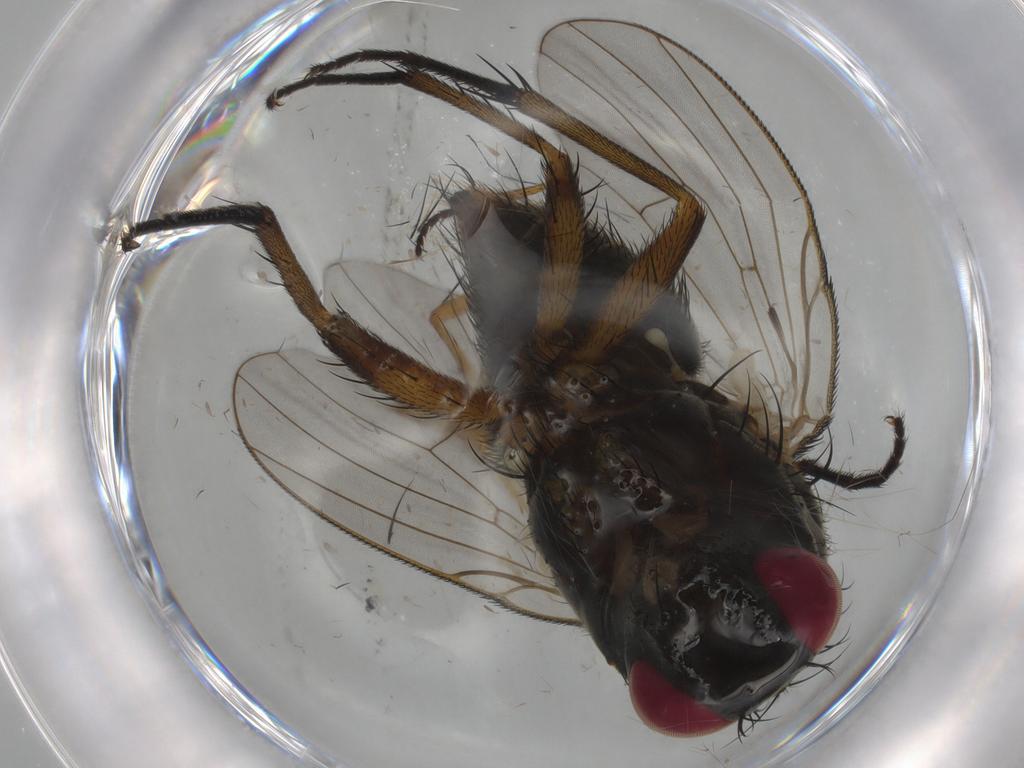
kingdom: Animalia
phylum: Arthropoda
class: Insecta
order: Diptera
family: Muscidae
